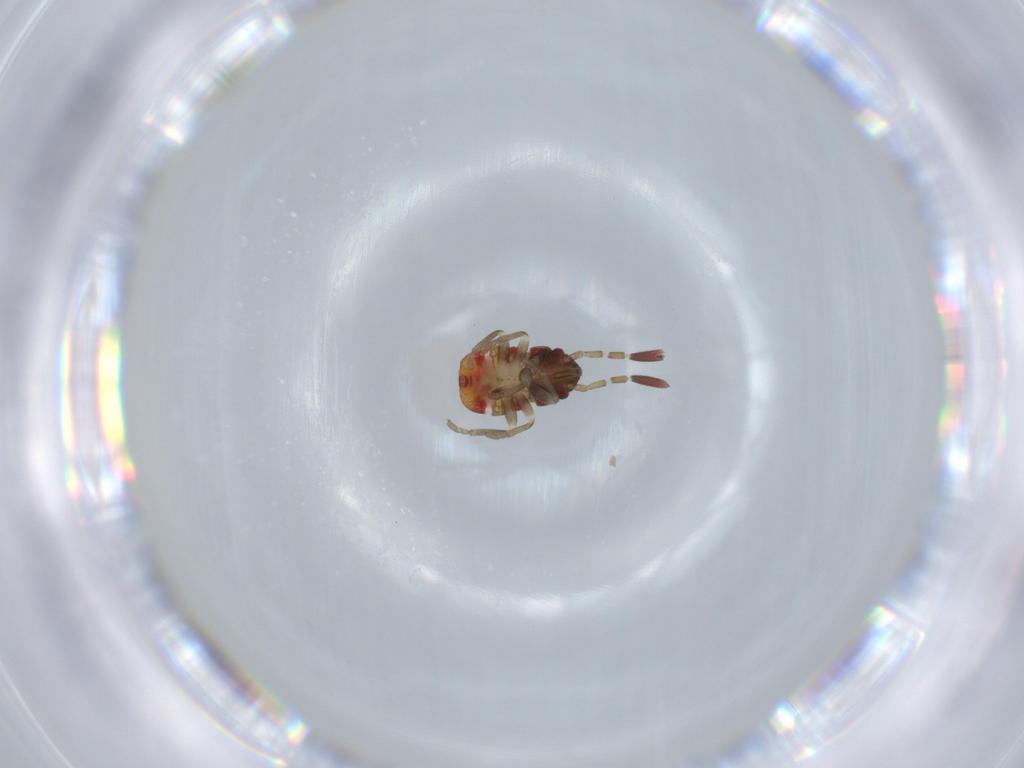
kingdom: Animalia
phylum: Arthropoda
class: Insecta
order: Hemiptera
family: Rhyparochromidae
